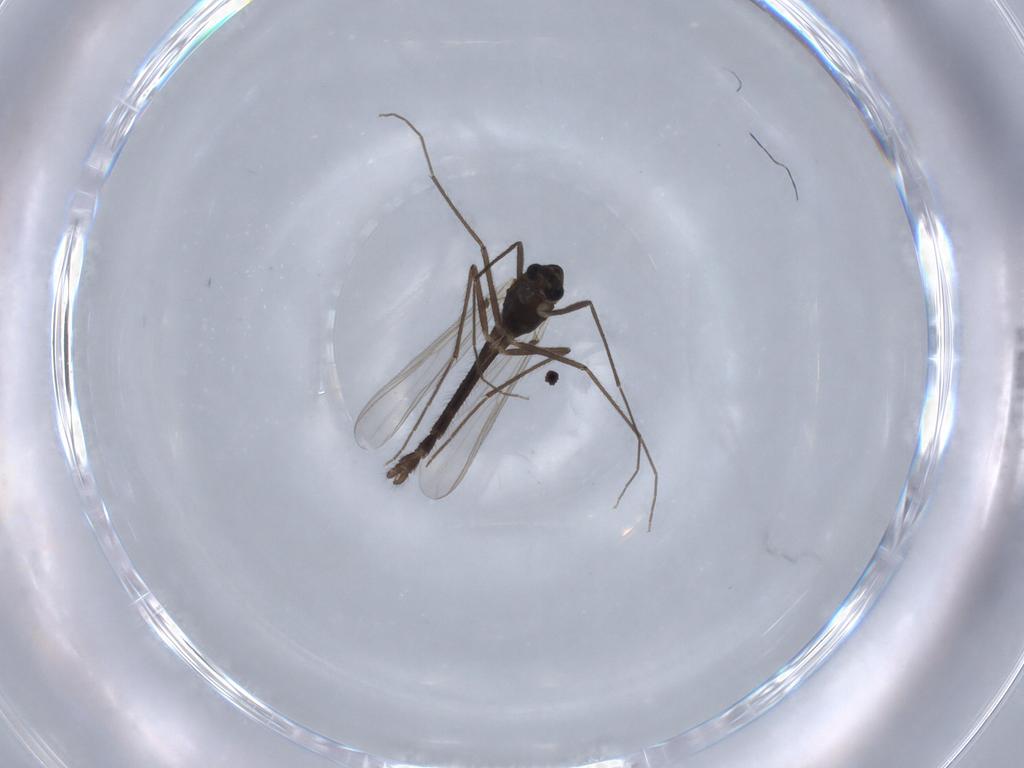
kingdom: Animalia
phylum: Arthropoda
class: Insecta
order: Diptera
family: Chironomidae
